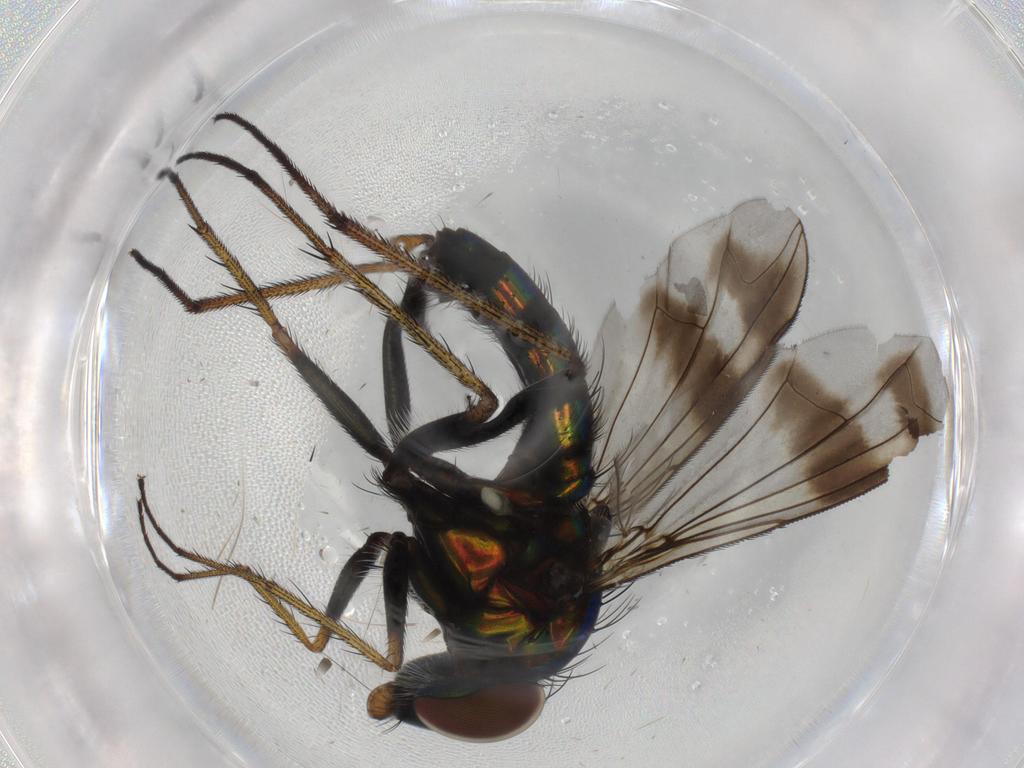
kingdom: Animalia
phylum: Arthropoda
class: Insecta
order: Diptera
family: Dolichopodidae
